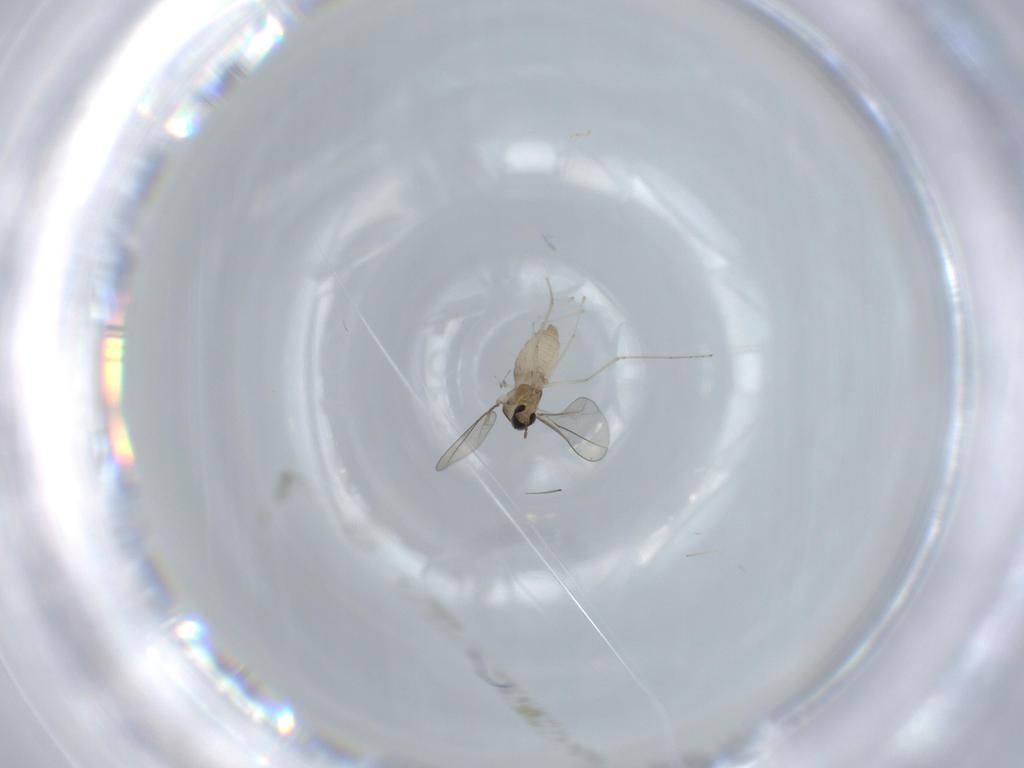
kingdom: Animalia
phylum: Arthropoda
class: Insecta
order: Diptera
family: Cecidomyiidae
